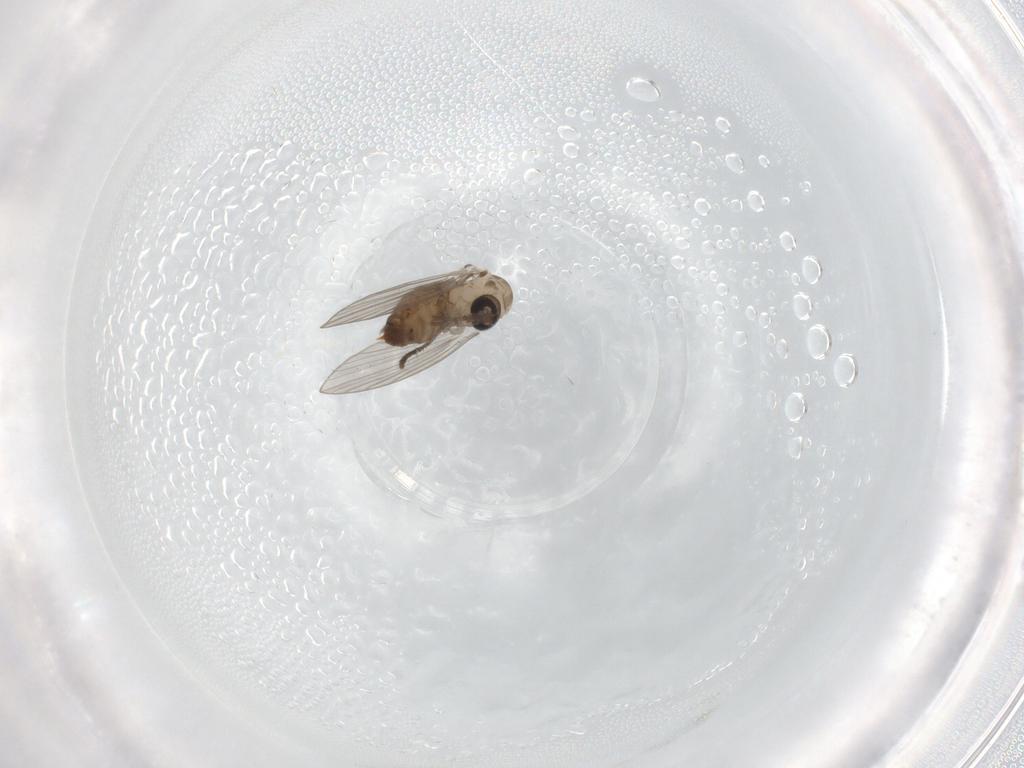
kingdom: Animalia
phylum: Arthropoda
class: Insecta
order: Diptera
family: Psychodidae
